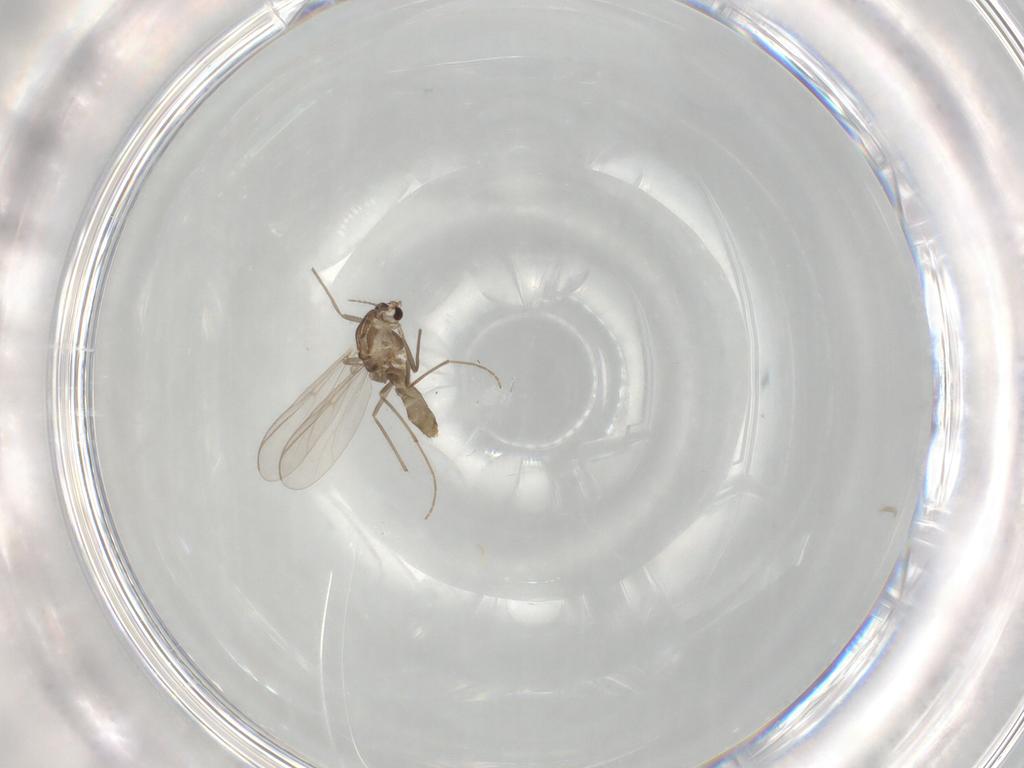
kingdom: Animalia
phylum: Arthropoda
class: Insecta
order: Diptera
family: Chironomidae
